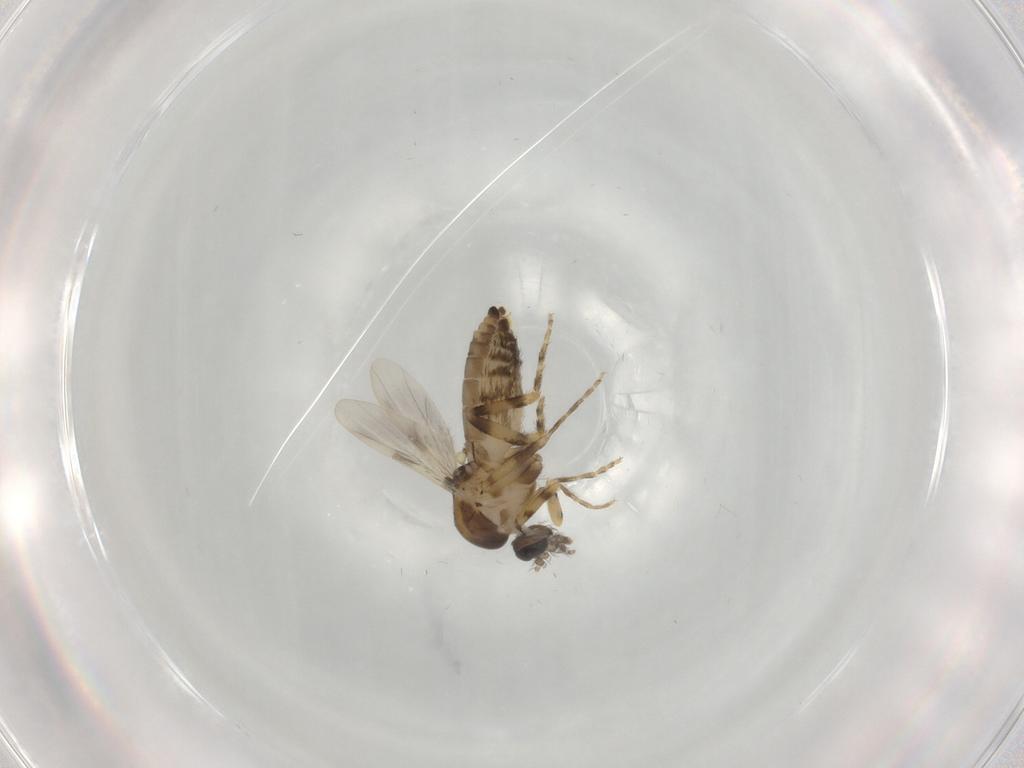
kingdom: Animalia
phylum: Arthropoda
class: Insecta
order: Diptera
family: Ceratopogonidae
